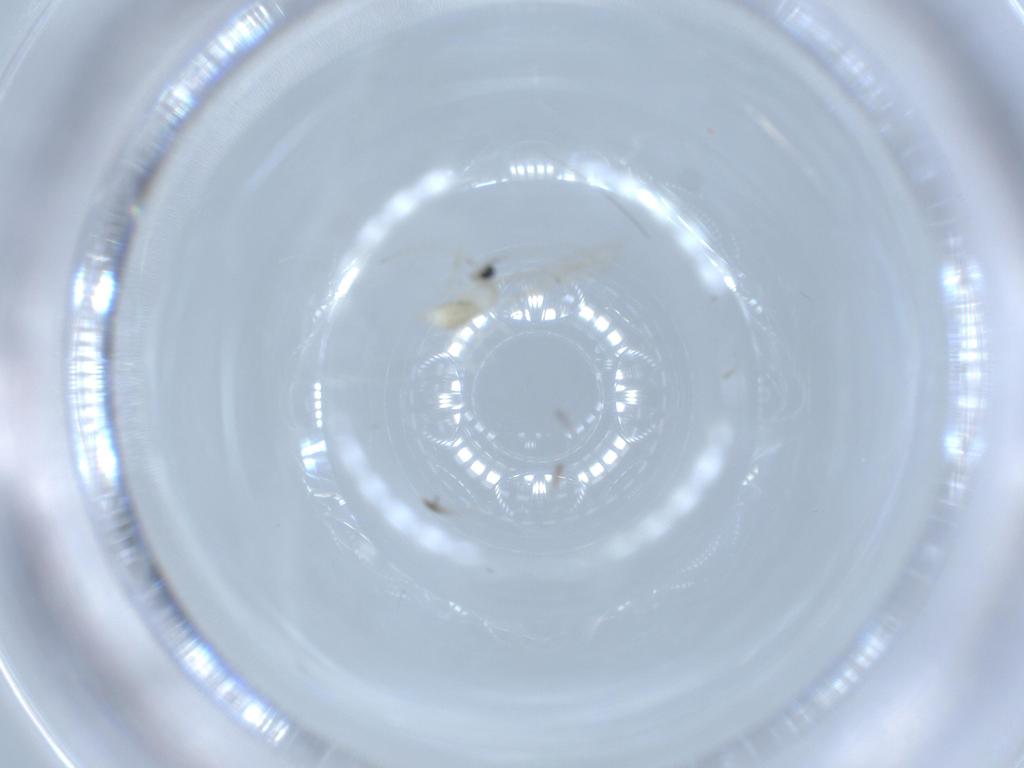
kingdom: Animalia
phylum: Arthropoda
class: Insecta
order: Diptera
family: Cecidomyiidae
